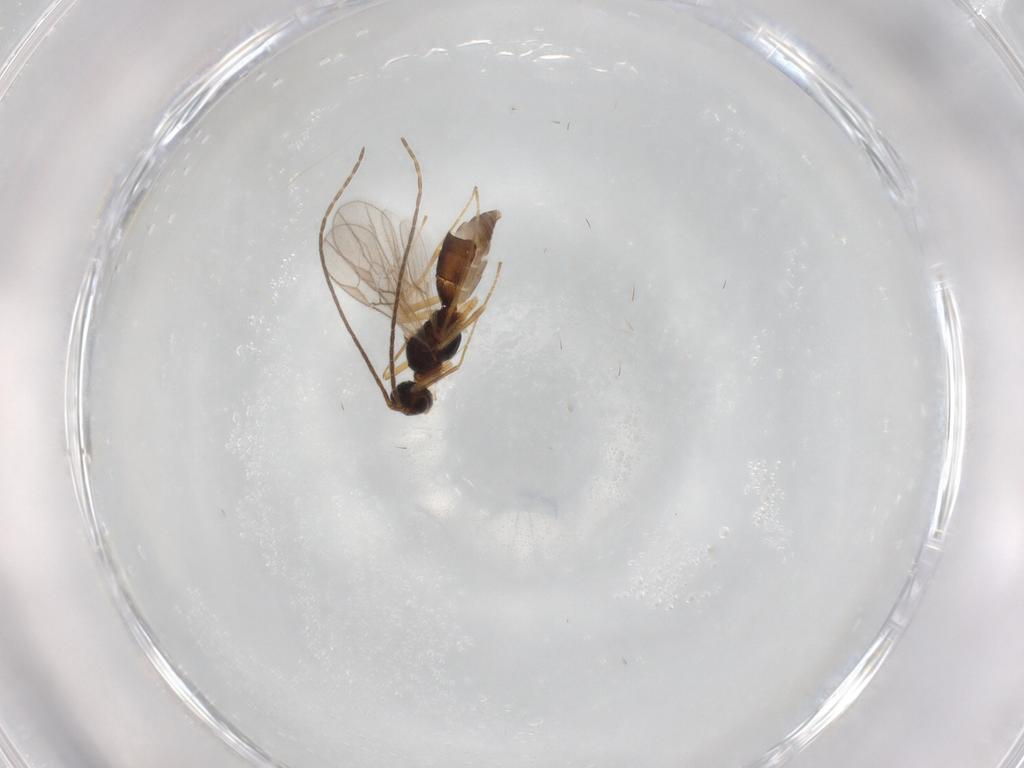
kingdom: Animalia
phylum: Arthropoda
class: Insecta
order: Hymenoptera
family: Braconidae
